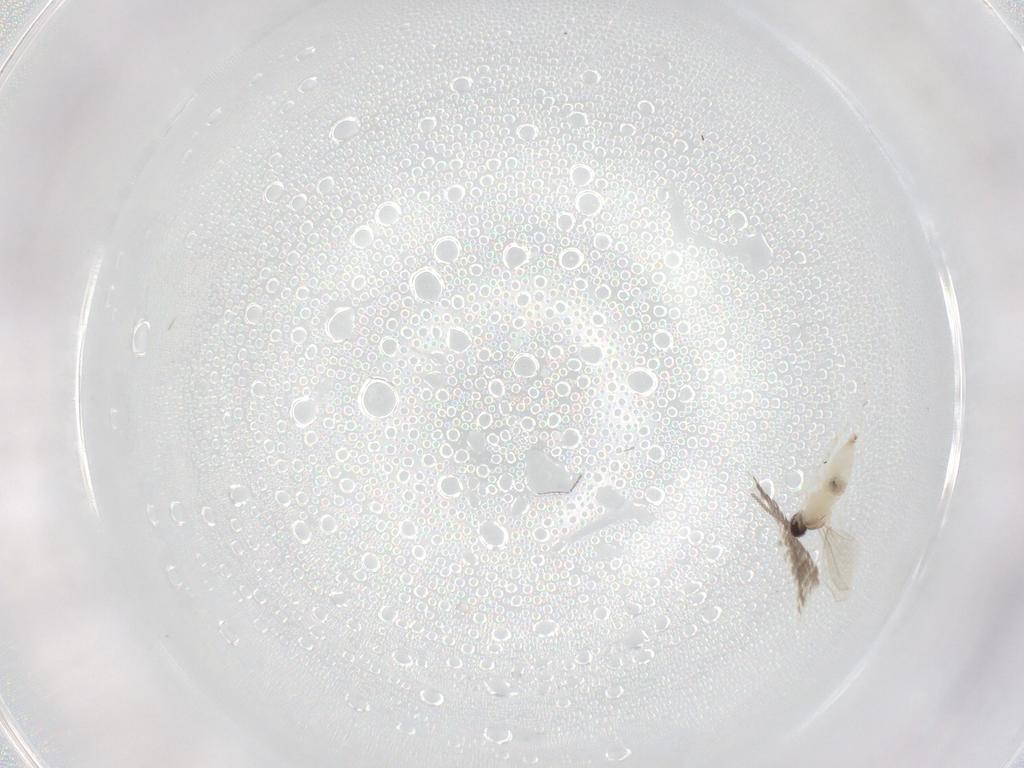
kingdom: Animalia
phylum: Arthropoda
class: Insecta
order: Diptera
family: Cecidomyiidae
